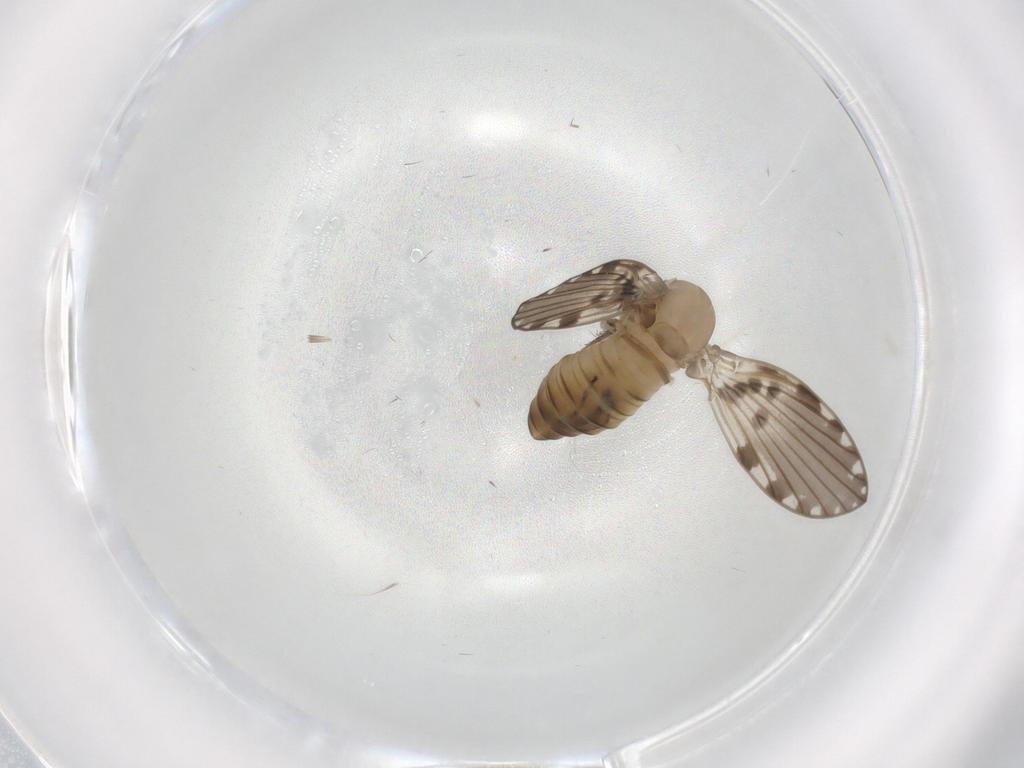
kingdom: Animalia
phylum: Arthropoda
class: Insecta
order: Diptera
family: Psychodidae
